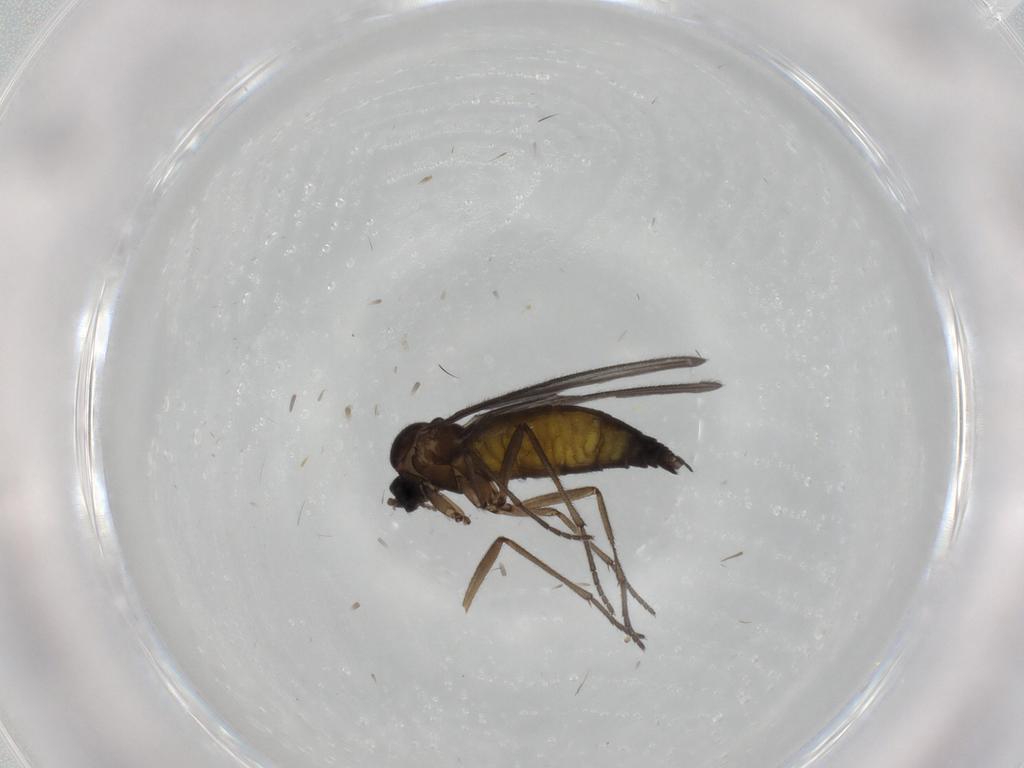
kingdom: Animalia
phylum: Arthropoda
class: Insecta
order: Diptera
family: Sciaridae
